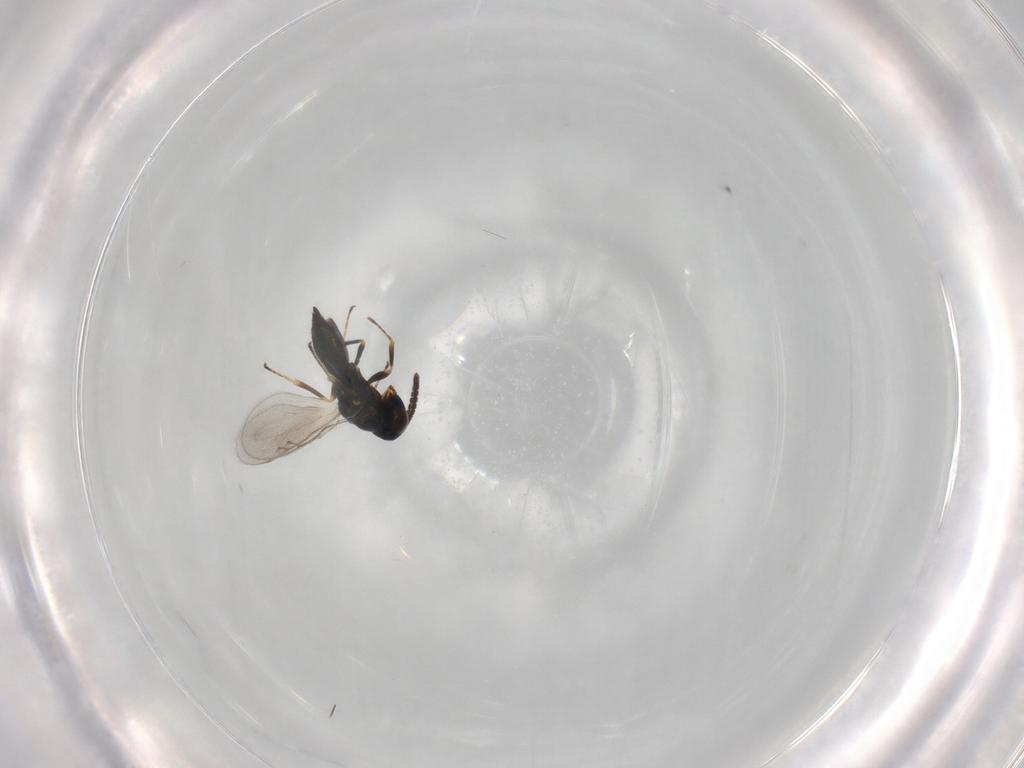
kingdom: Animalia
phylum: Arthropoda
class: Insecta
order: Hymenoptera
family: Pteromalidae
